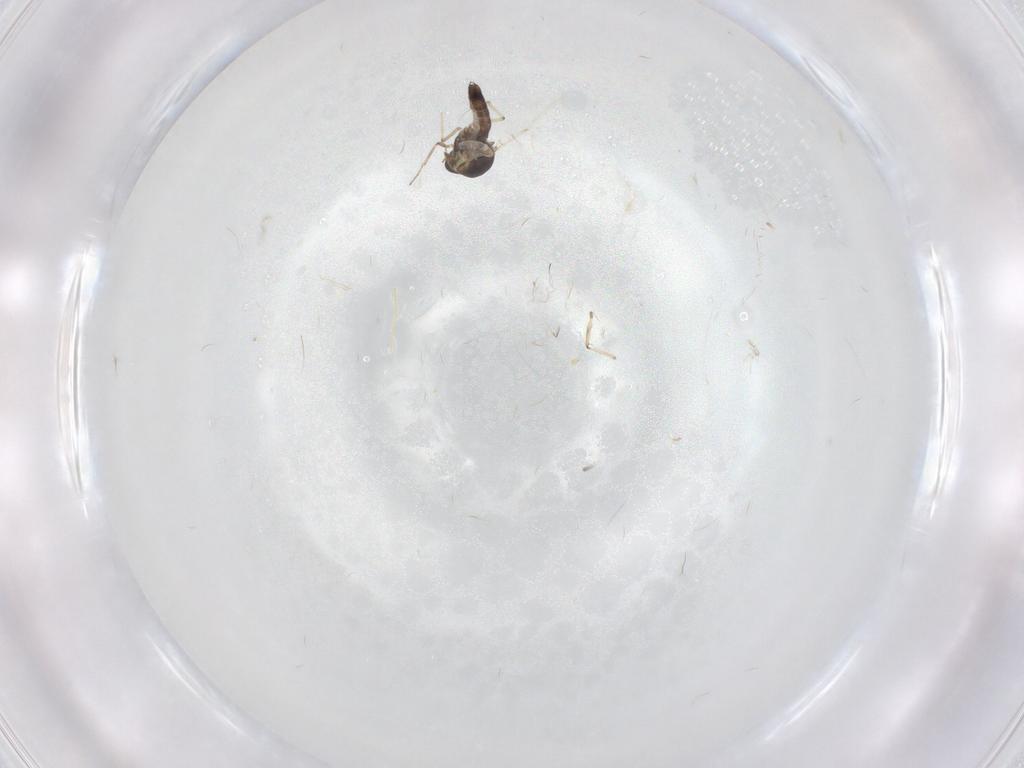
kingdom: Animalia
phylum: Arthropoda
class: Insecta
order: Diptera
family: Ceratopogonidae
